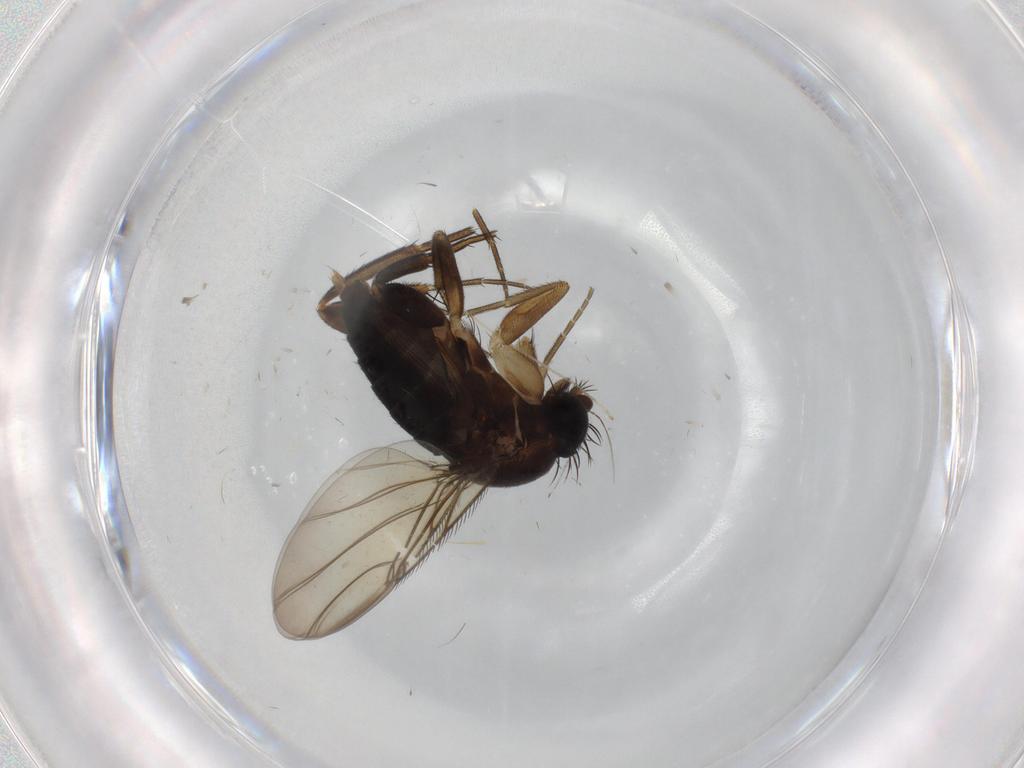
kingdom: Animalia
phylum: Arthropoda
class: Insecta
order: Diptera
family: Phoridae
